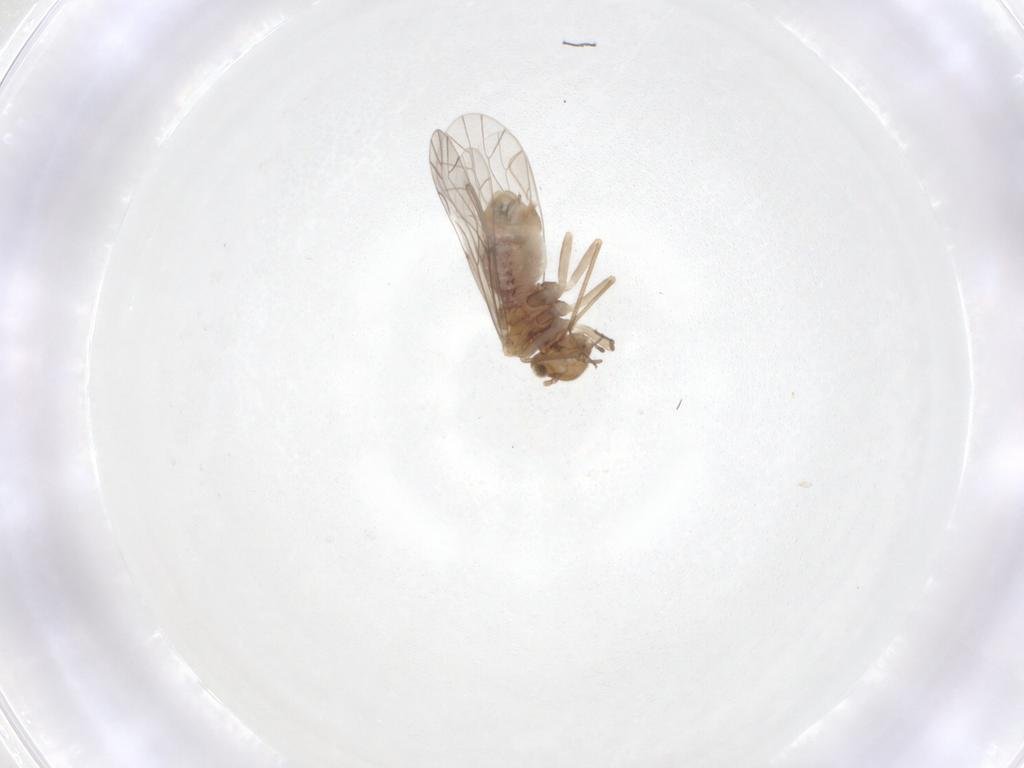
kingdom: Animalia
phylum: Arthropoda
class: Insecta
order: Psocodea
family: Lachesillidae
